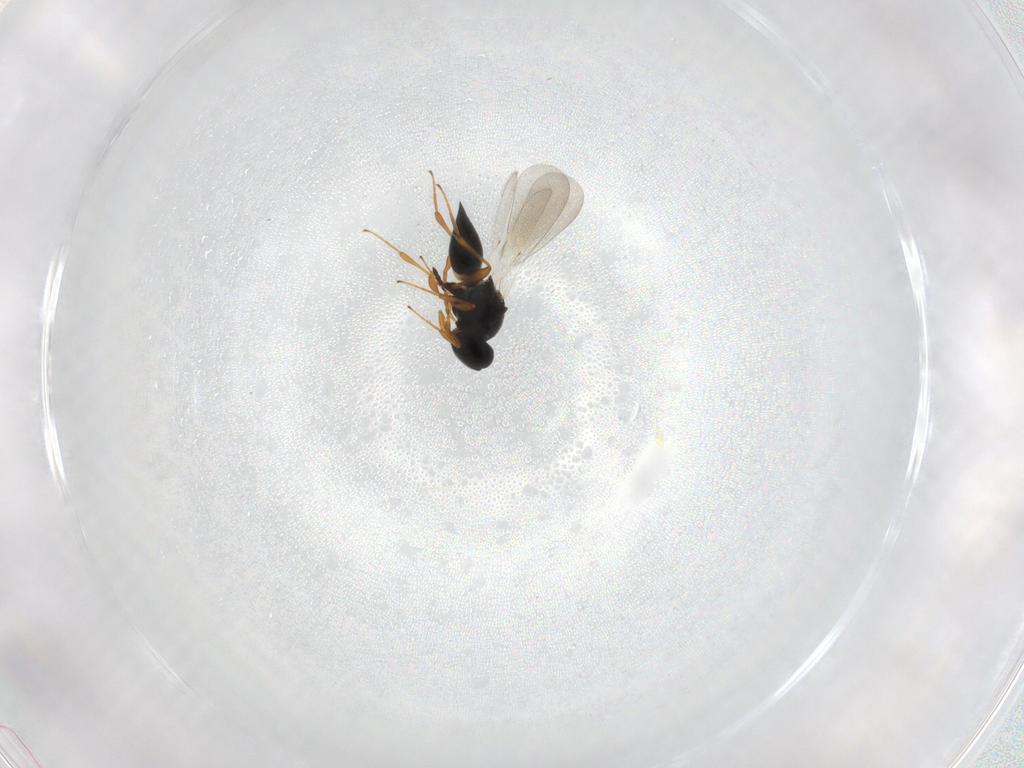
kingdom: Animalia
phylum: Arthropoda
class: Insecta
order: Hymenoptera
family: Platygastridae
